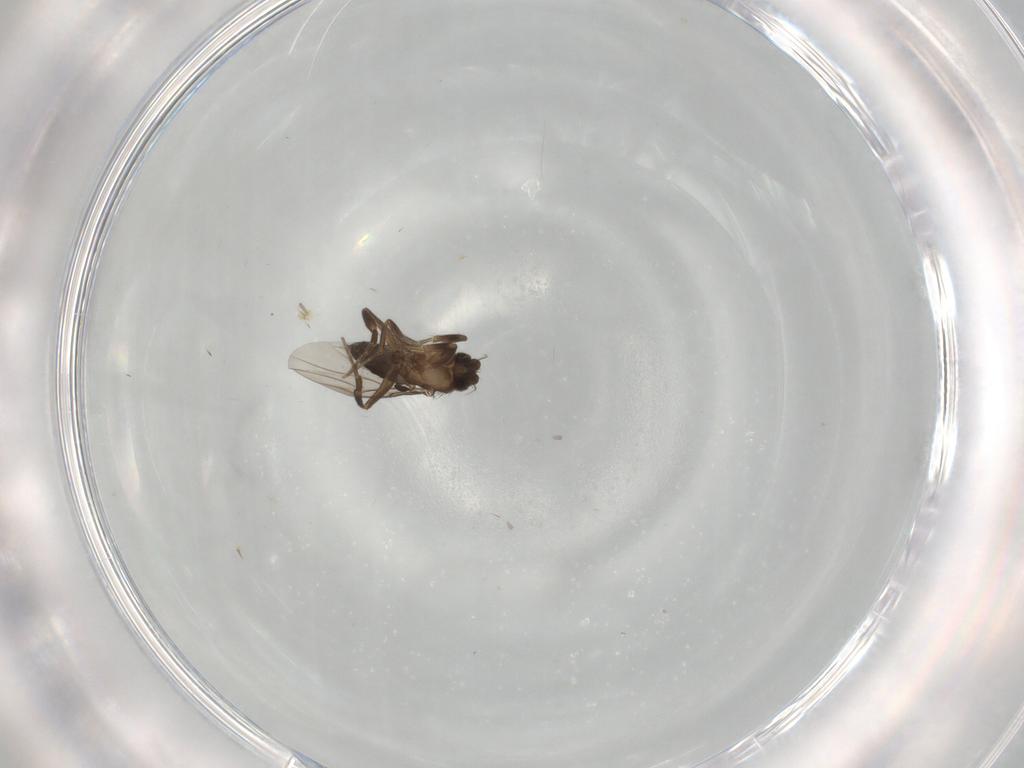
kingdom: Animalia
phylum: Arthropoda
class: Insecta
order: Diptera
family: Phoridae
